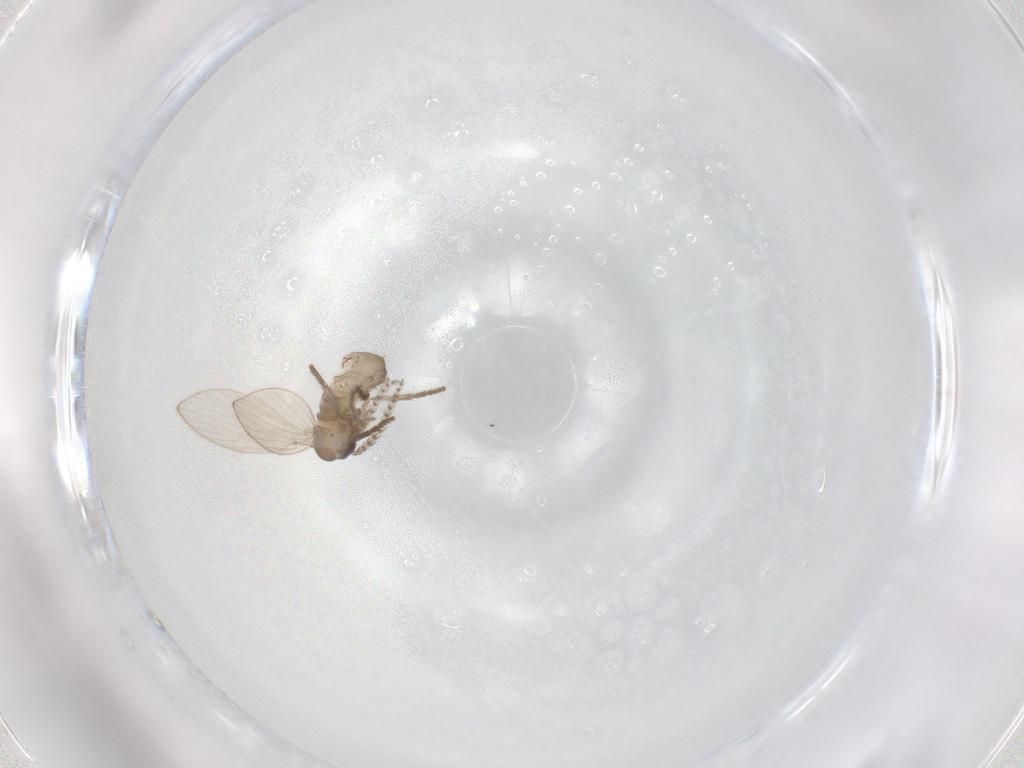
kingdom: Animalia
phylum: Arthropoda
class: Insecta
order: Diptera
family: Psychodidae
